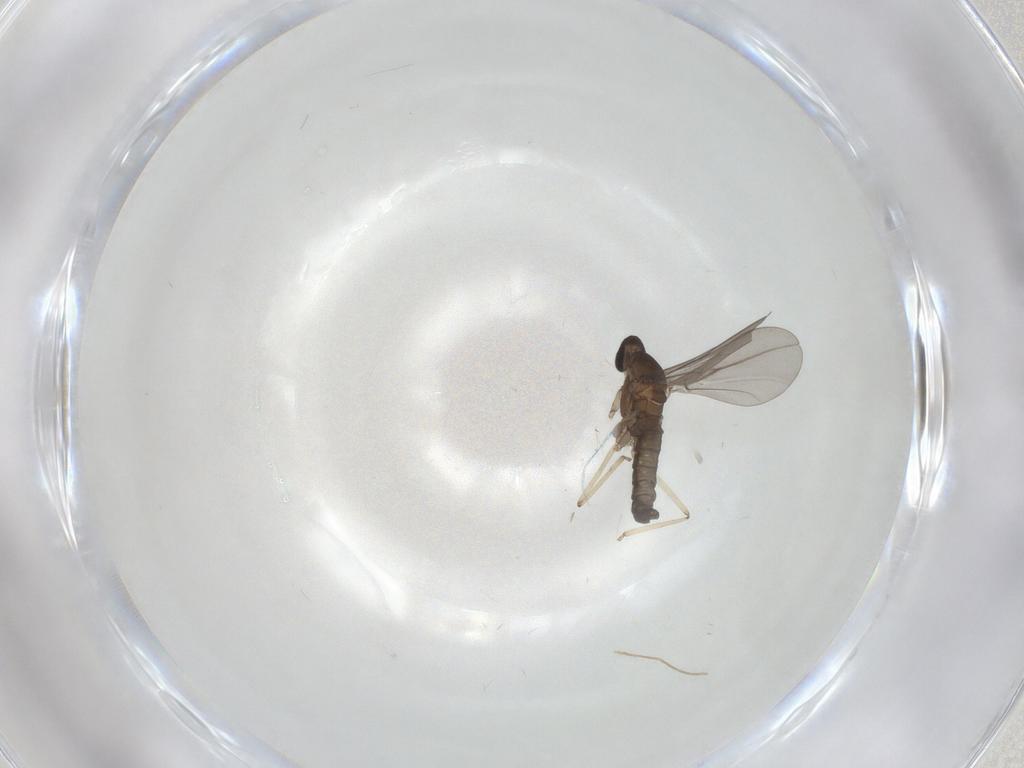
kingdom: Animalia
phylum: Arthropoda
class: Insecta
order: Diptera
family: Cecidomyiidae
